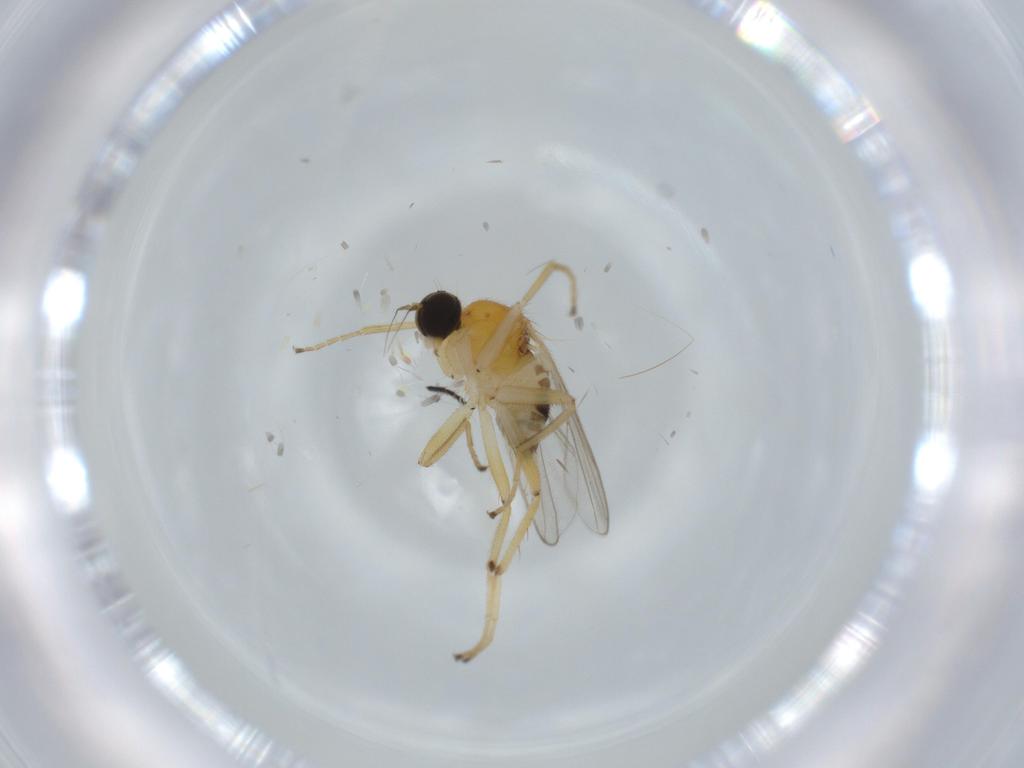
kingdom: Animalia
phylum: Arthropoda
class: Insecta
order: Diptera
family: Hybotidae
